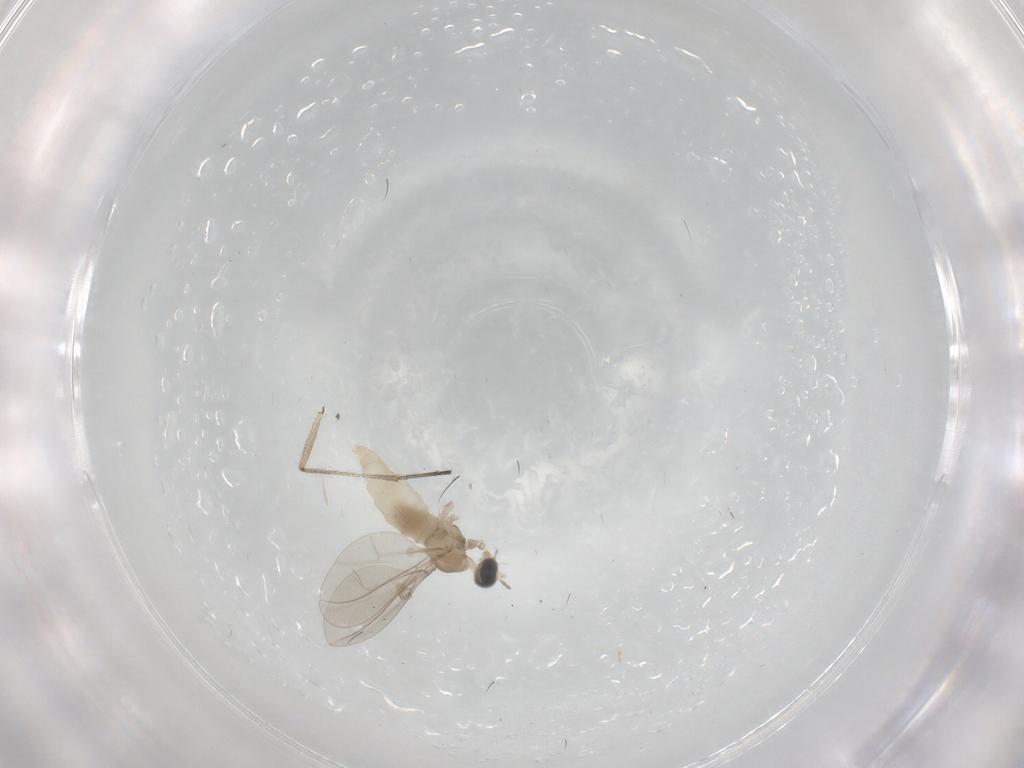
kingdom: Animalia
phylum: Arthropoda
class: Insecta
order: Diptera
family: Sciaridae
